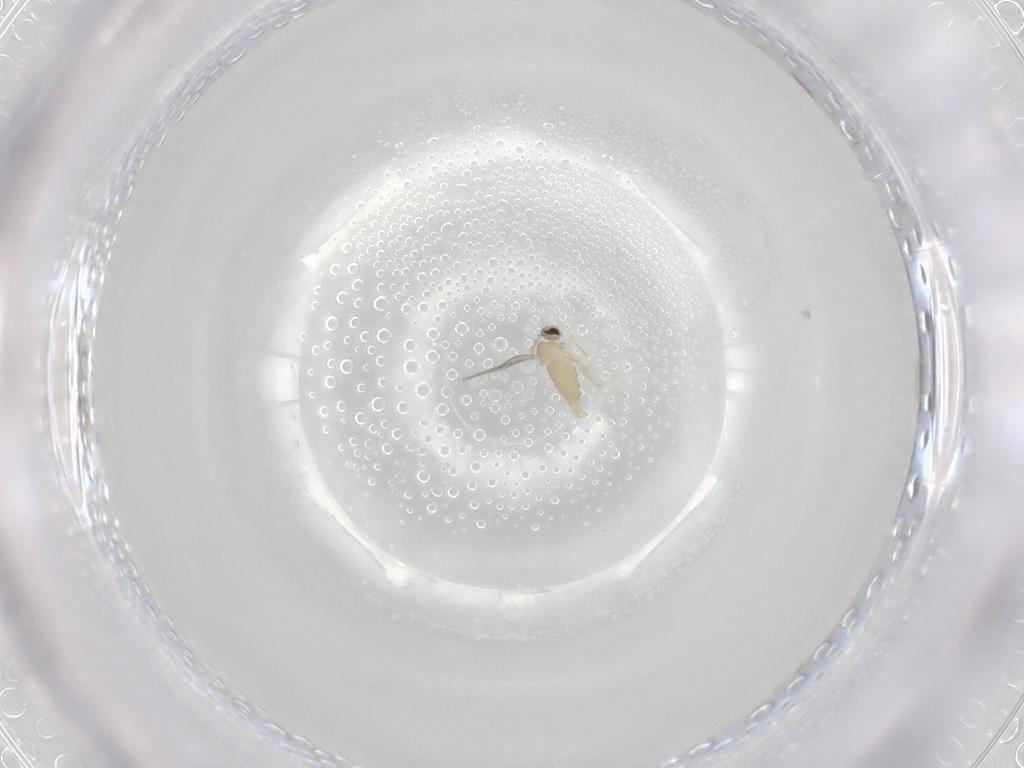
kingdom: Animalia
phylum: Arthropoda
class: Insecta
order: Diptera
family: Cecidomyiidae
